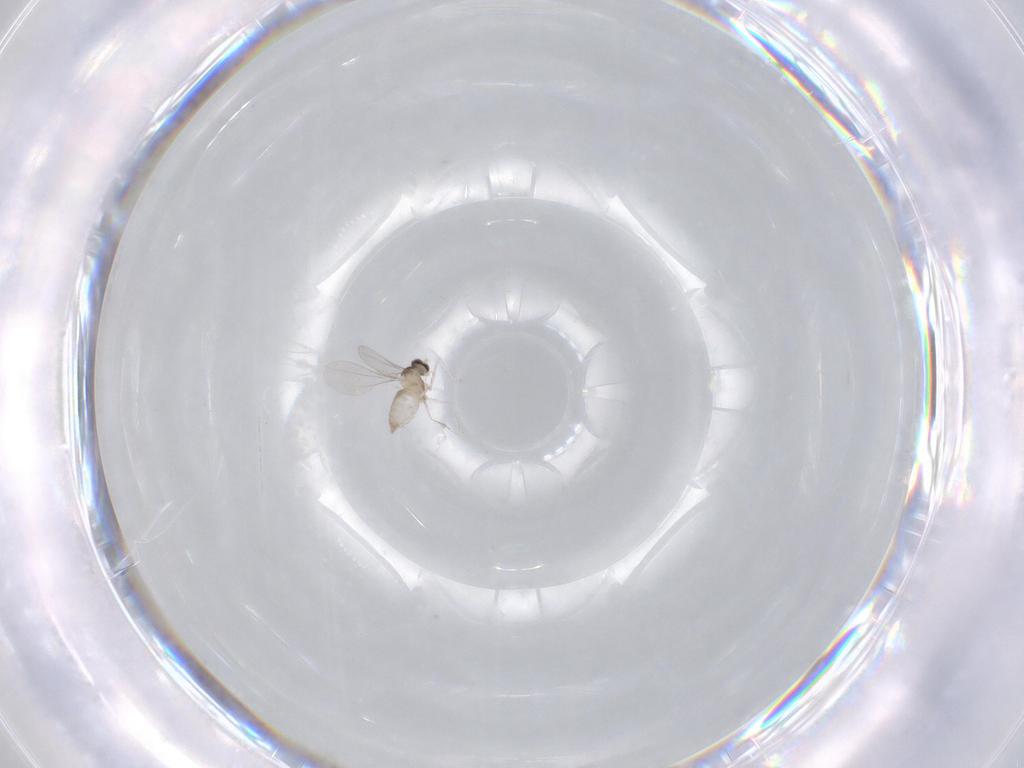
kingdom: Animalia
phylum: Arthropoda
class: Insecta
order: Diptera
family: Cecidomyiidae
